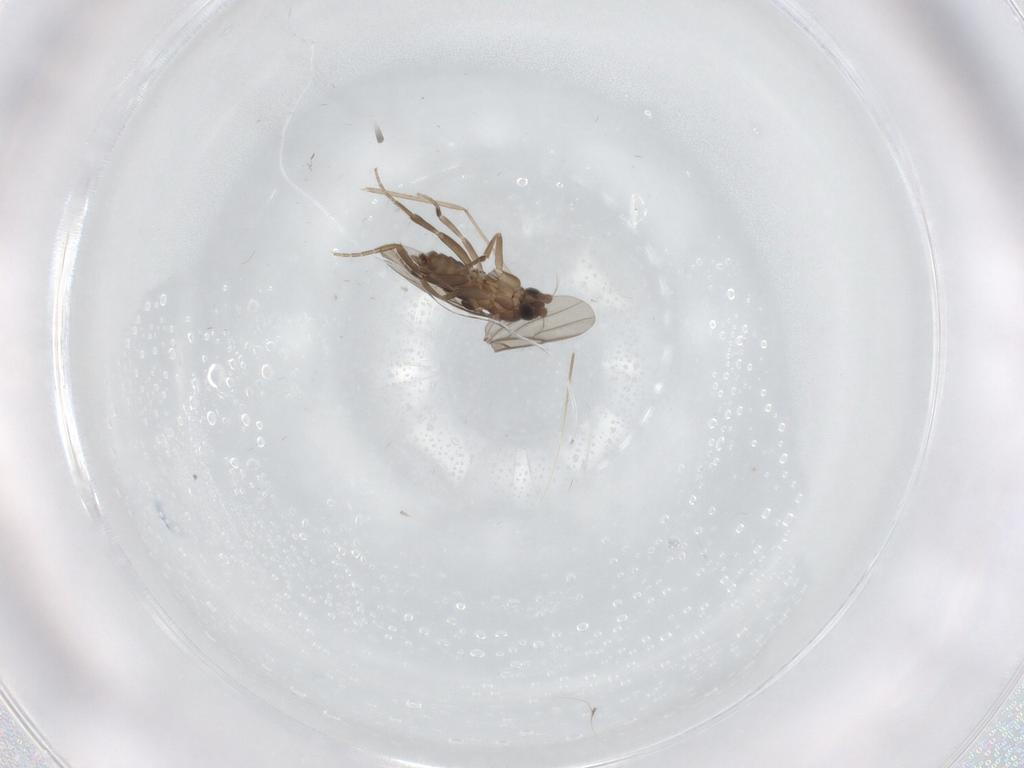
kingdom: Animalia
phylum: Arthropoda
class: Insecta
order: Diptera
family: Phoridae
